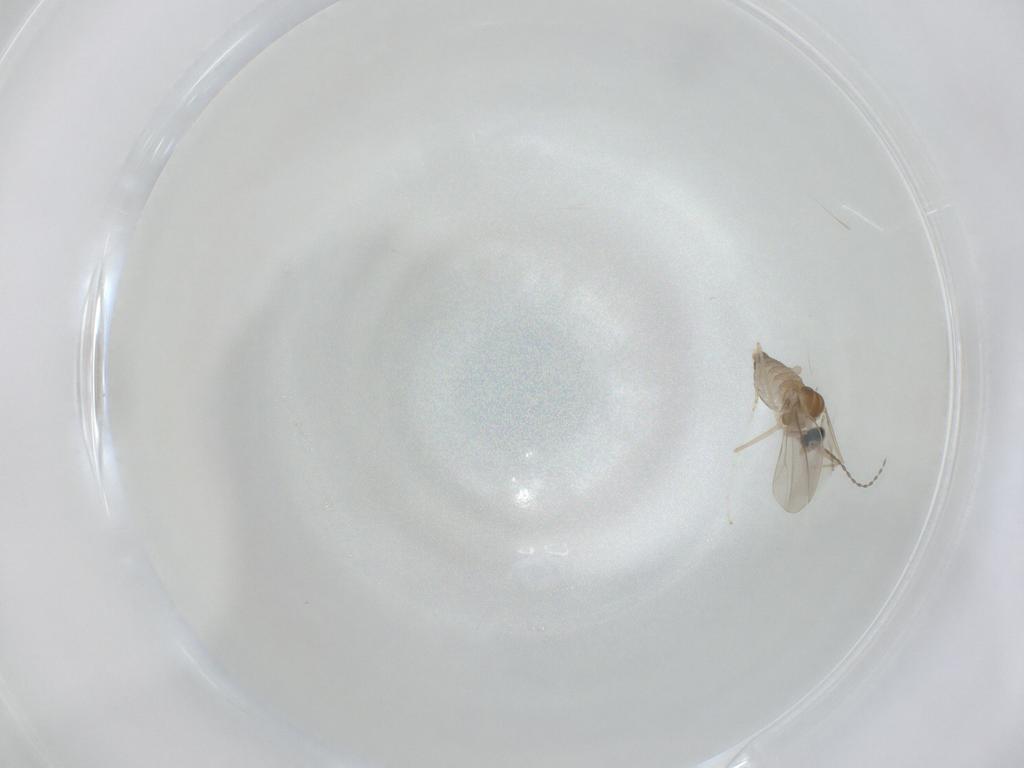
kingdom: Animalia
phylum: Arthropoda
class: Insecta
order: Diptera
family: Cecidomyiidae
